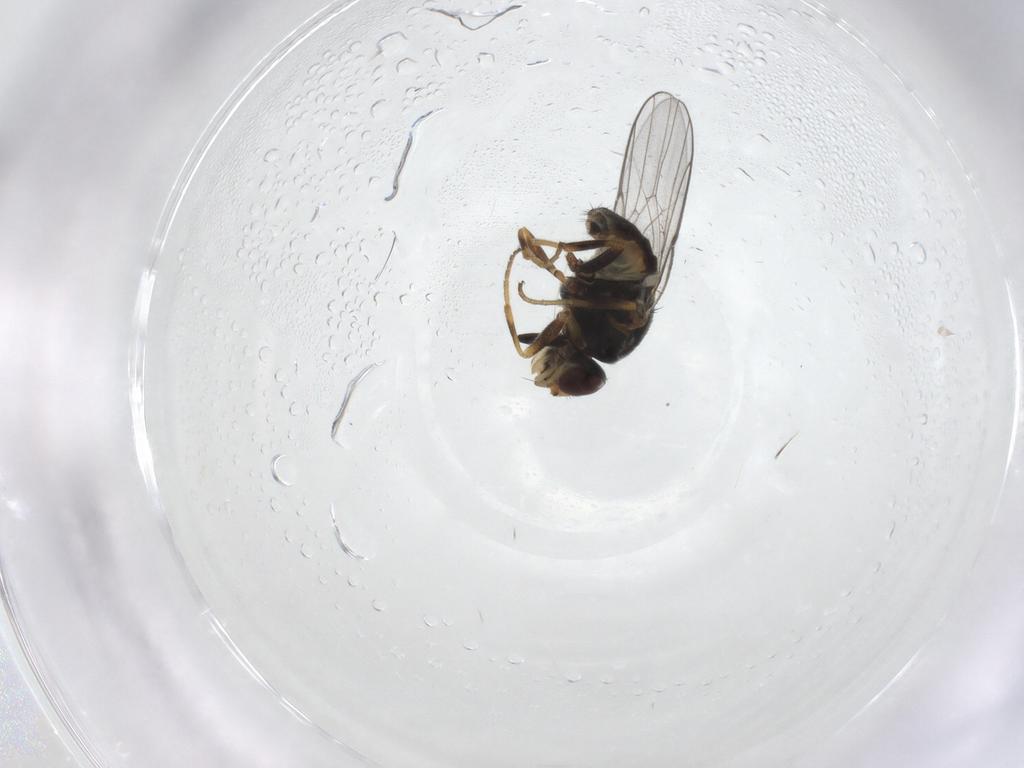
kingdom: Animalia
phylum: Arthropoda
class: Insecta
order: Diptera
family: Chloropidae
